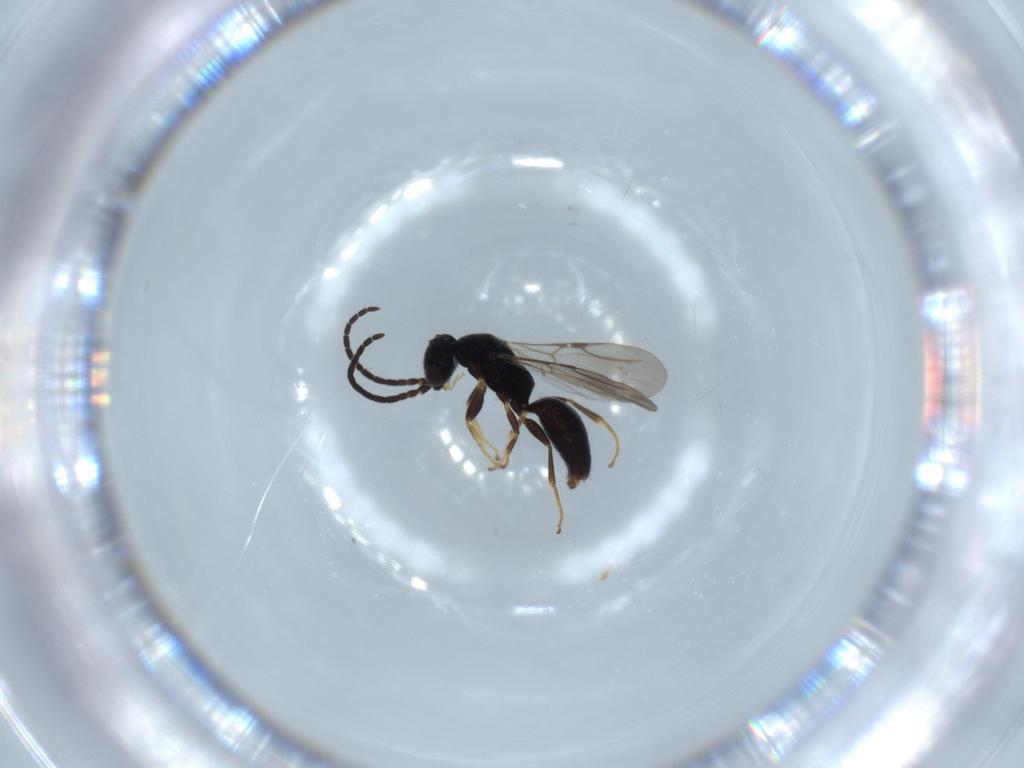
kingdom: Animalia
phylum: Arthropoda
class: Insecta
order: Hymenoptera
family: Bethylidae
